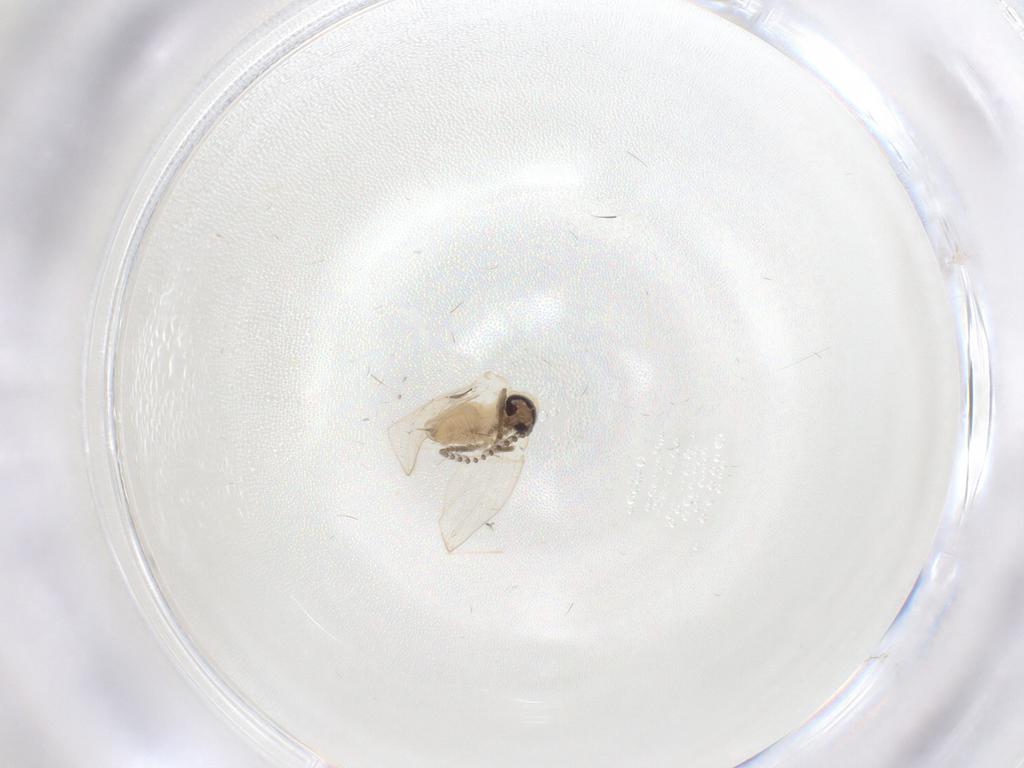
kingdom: Animalia
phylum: Arthropoda
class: Insecta
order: Diptera
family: Psychodidae
